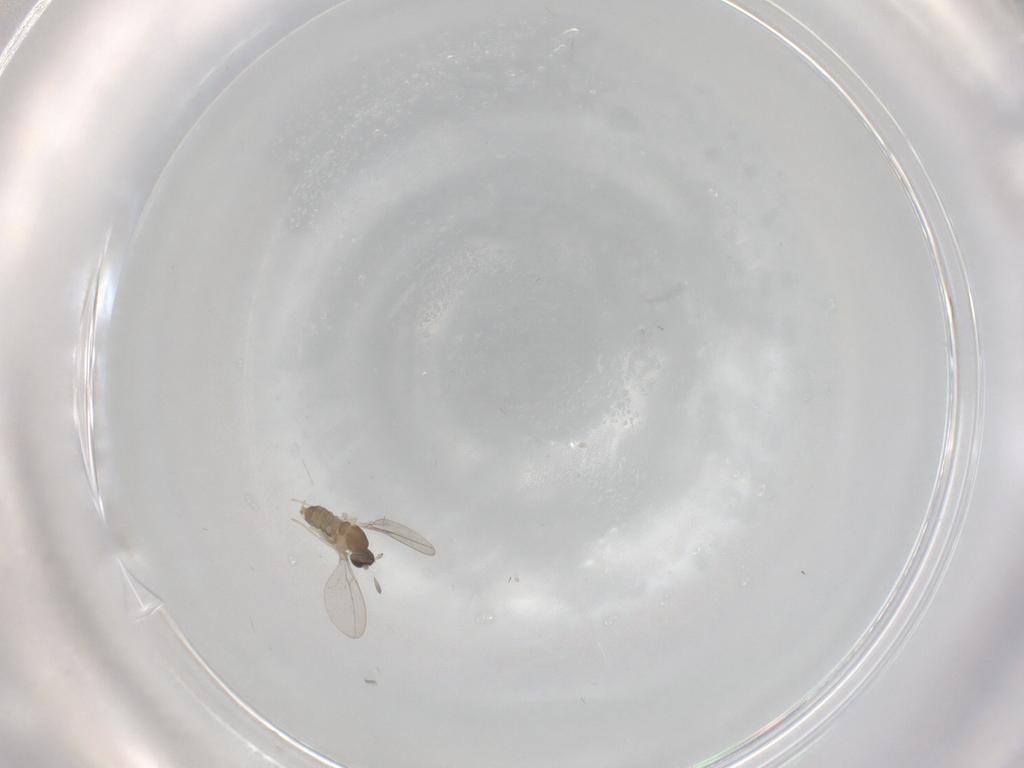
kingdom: Animalia
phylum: Arthropoda
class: Insecta
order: Diptera
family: Cecidomyiidae
